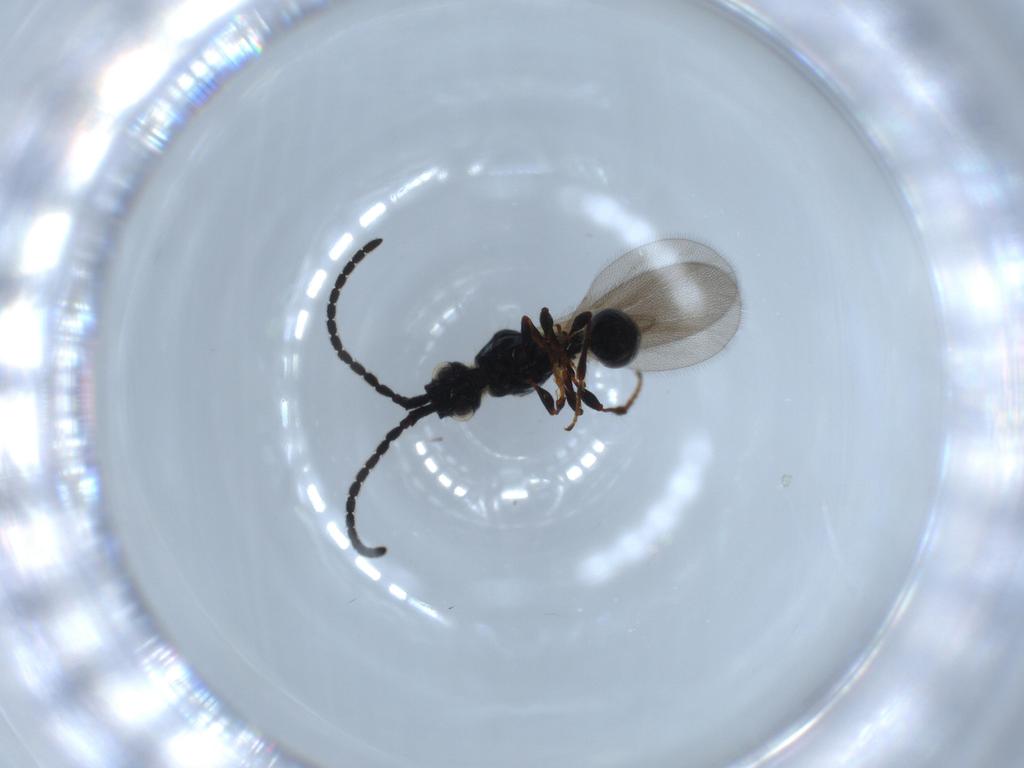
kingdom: Animalia
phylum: Arthropoda
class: Insecta
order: Hymenoptera
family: Diapriidae
